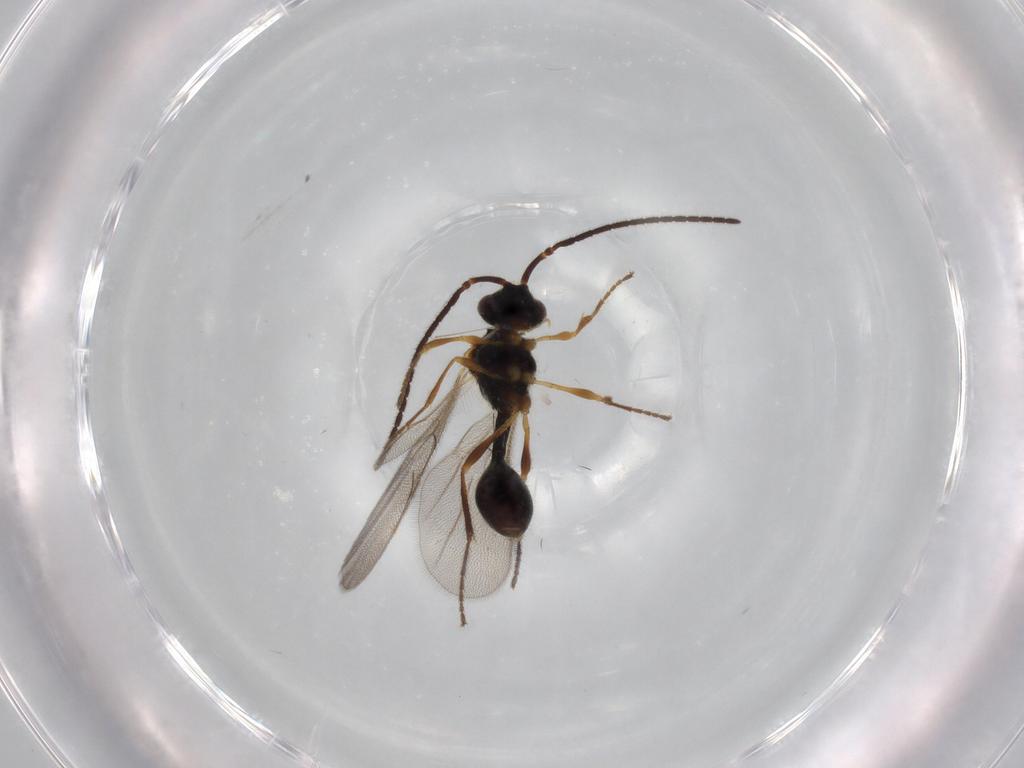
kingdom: Animalia
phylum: Arthropoda
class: Insecta
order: Hymenoptera
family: Platygastridae
